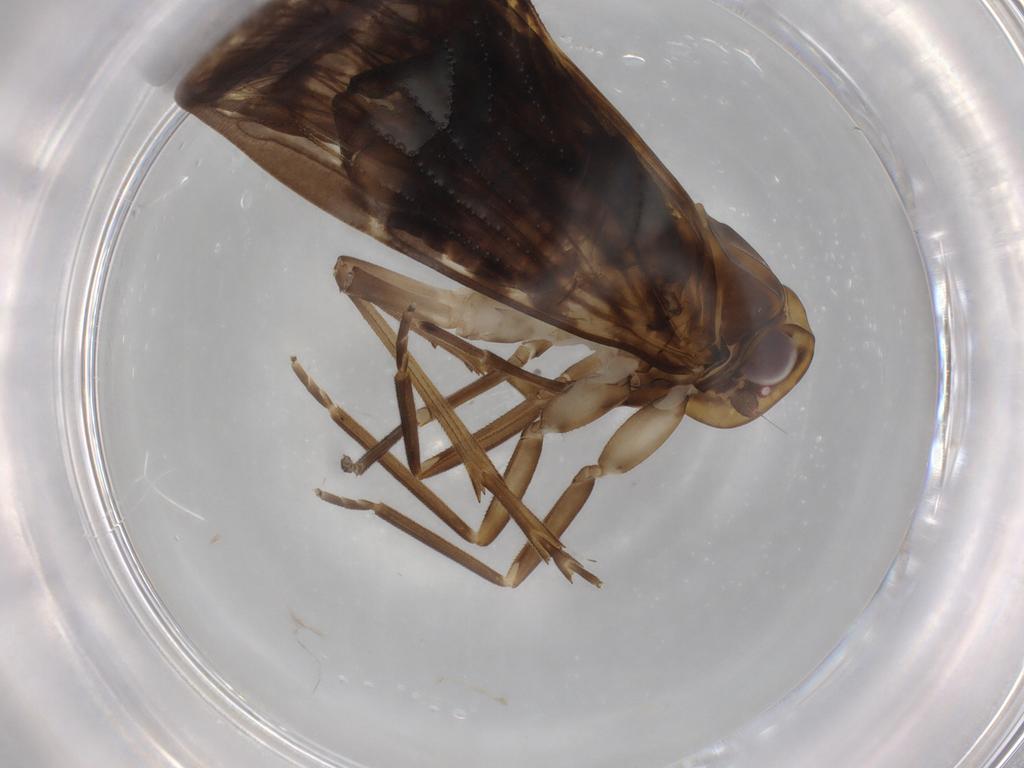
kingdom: Animalia
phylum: Arthropoda
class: Insecta
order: Hemiptera
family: Cixiidae
